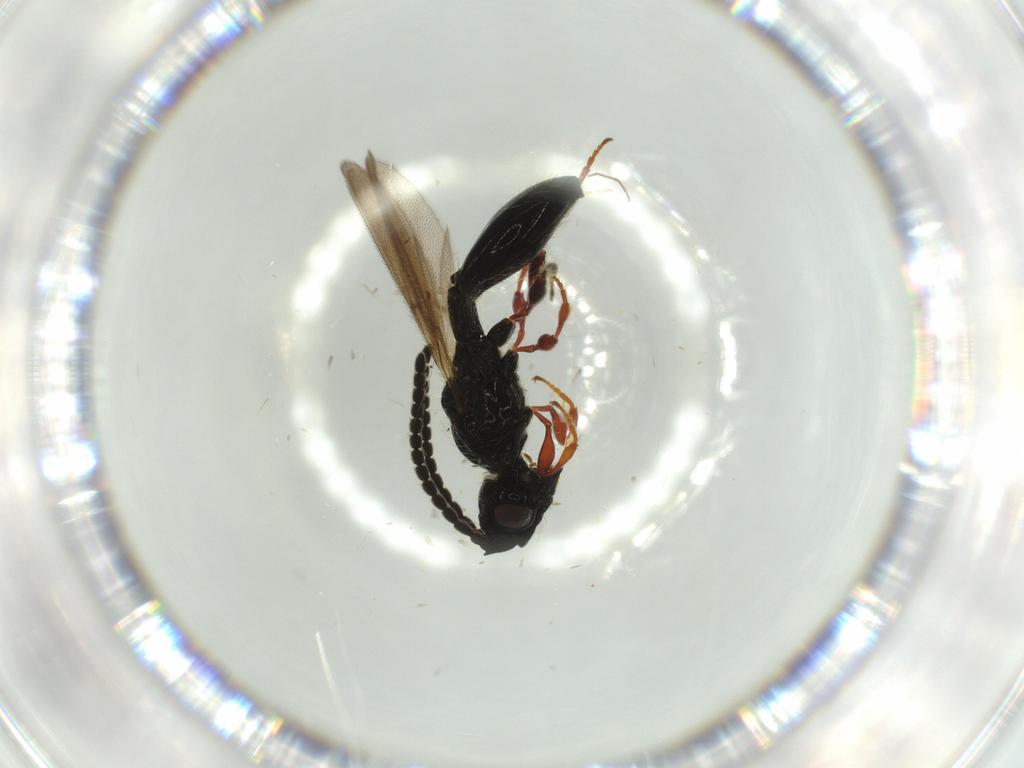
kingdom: Animalia
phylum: Arthropoda
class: Insecta
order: Hymenoptera
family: Diapriidae
